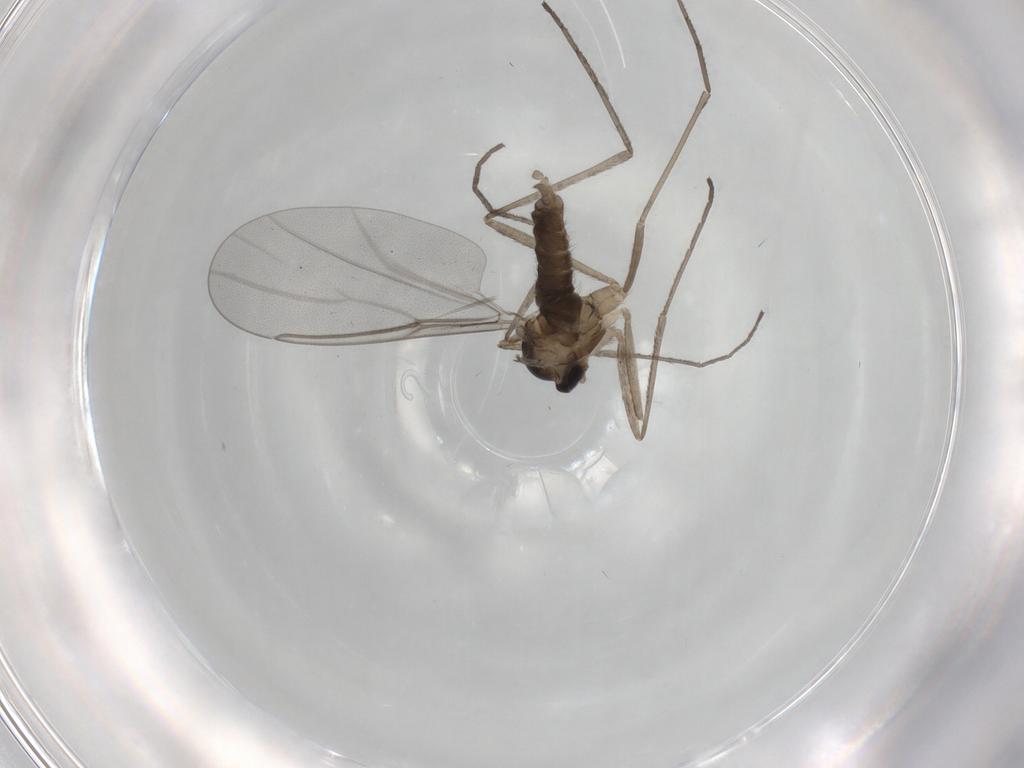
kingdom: Animalia
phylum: Arthropoda
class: Insecta
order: Diptera
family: Cecidomyiidae
